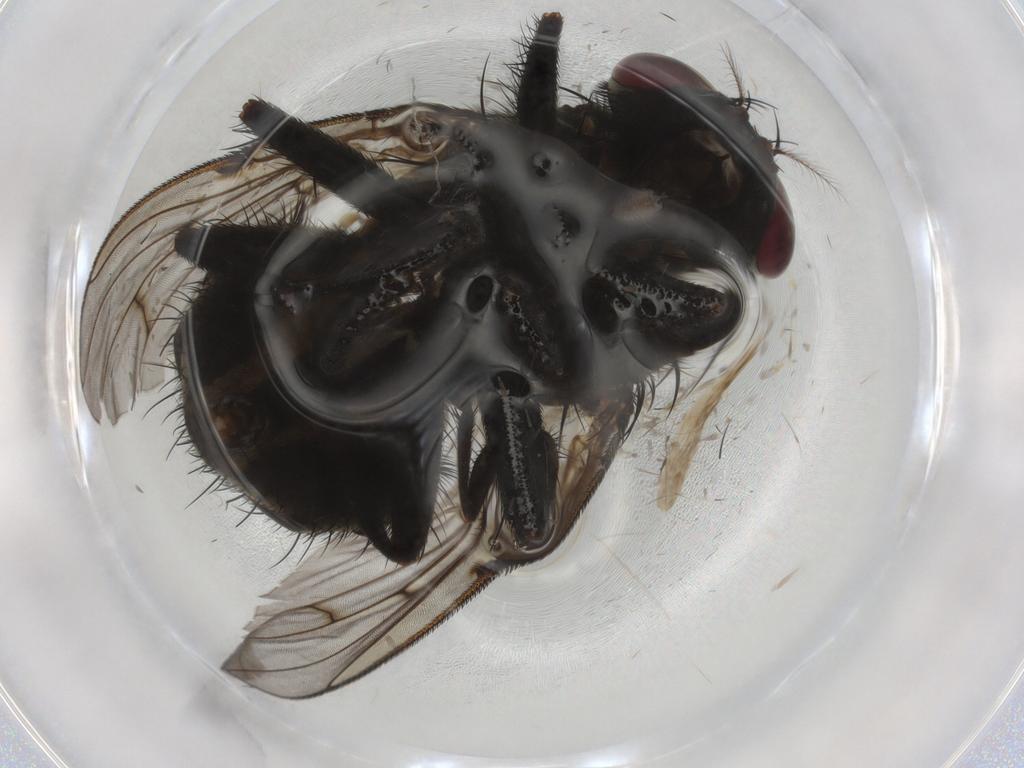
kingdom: Animalia
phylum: Arthropoda
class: Insecta
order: Diptera
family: Muscidae
